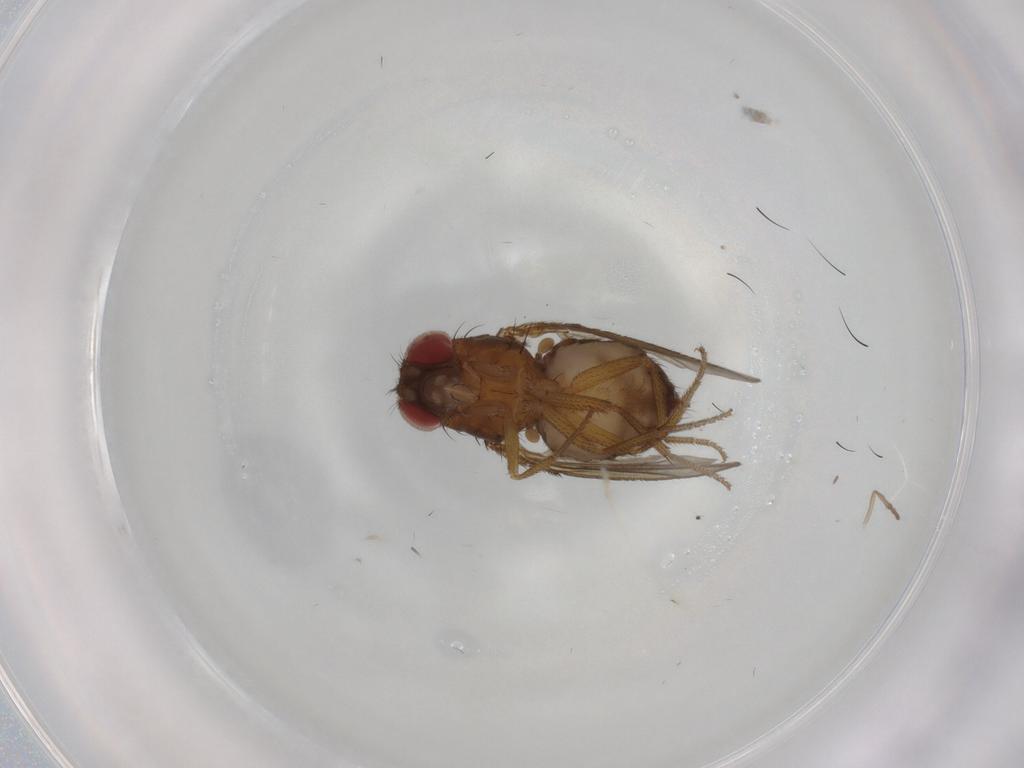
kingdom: Animalia
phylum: Arthropoda
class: Insecta
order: Diptera
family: Drosophilidae
